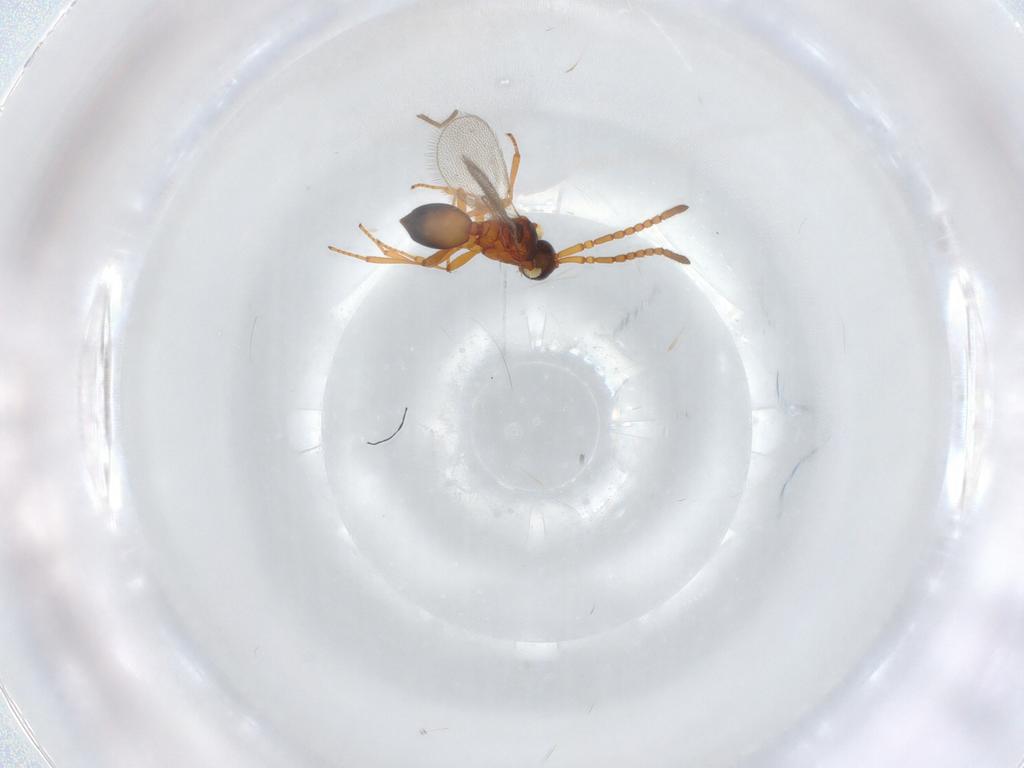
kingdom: Animalia
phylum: Arthropoda
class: Insecta
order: Hymenoptera
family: Diapriidae
